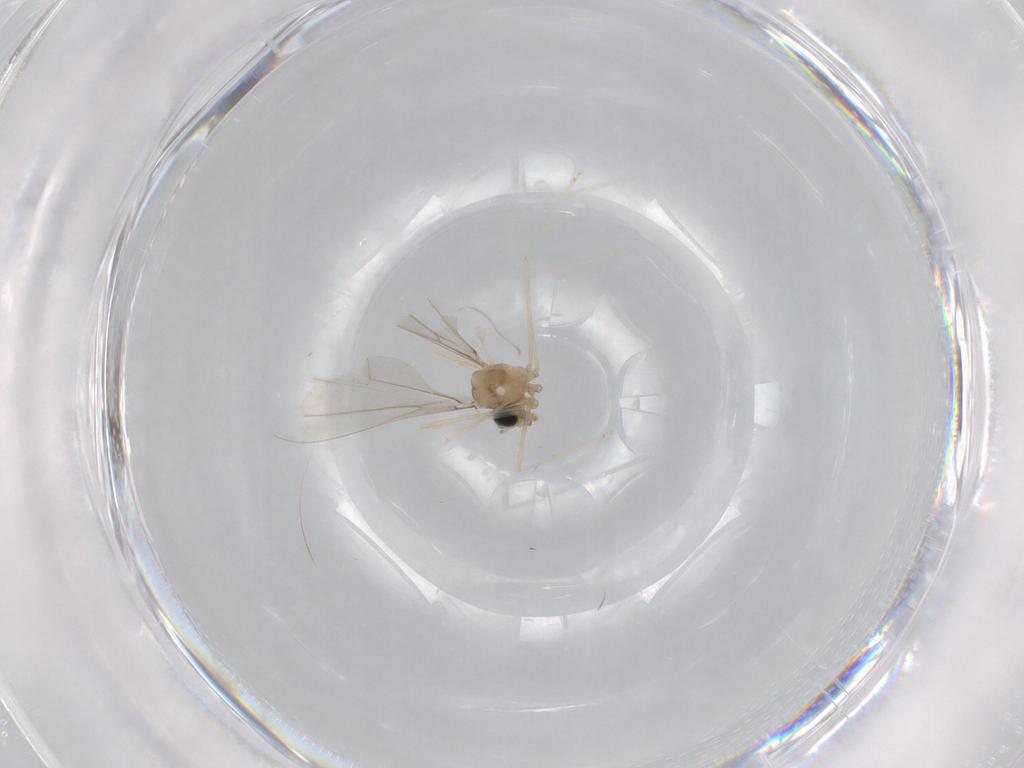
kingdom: Animalia
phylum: Arthropoda
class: Insecta
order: Diptera
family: Cecidomyiidae
